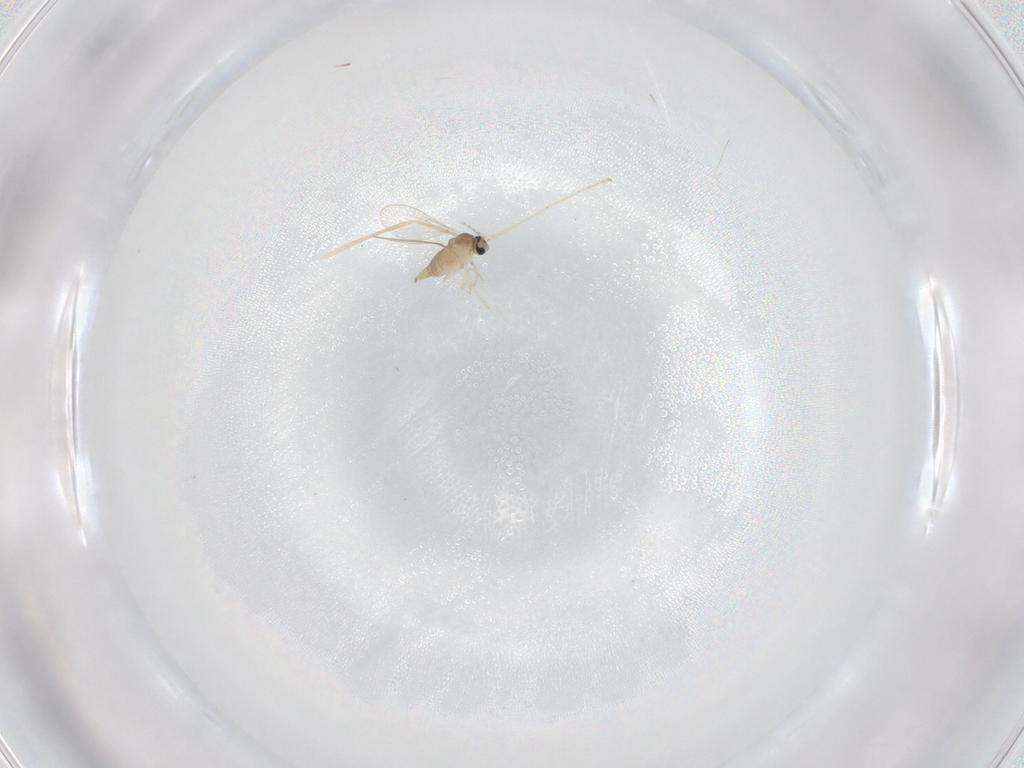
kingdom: Animalia
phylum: Arthropoda
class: Insecta
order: Diptera
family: Cecidomyiidae
